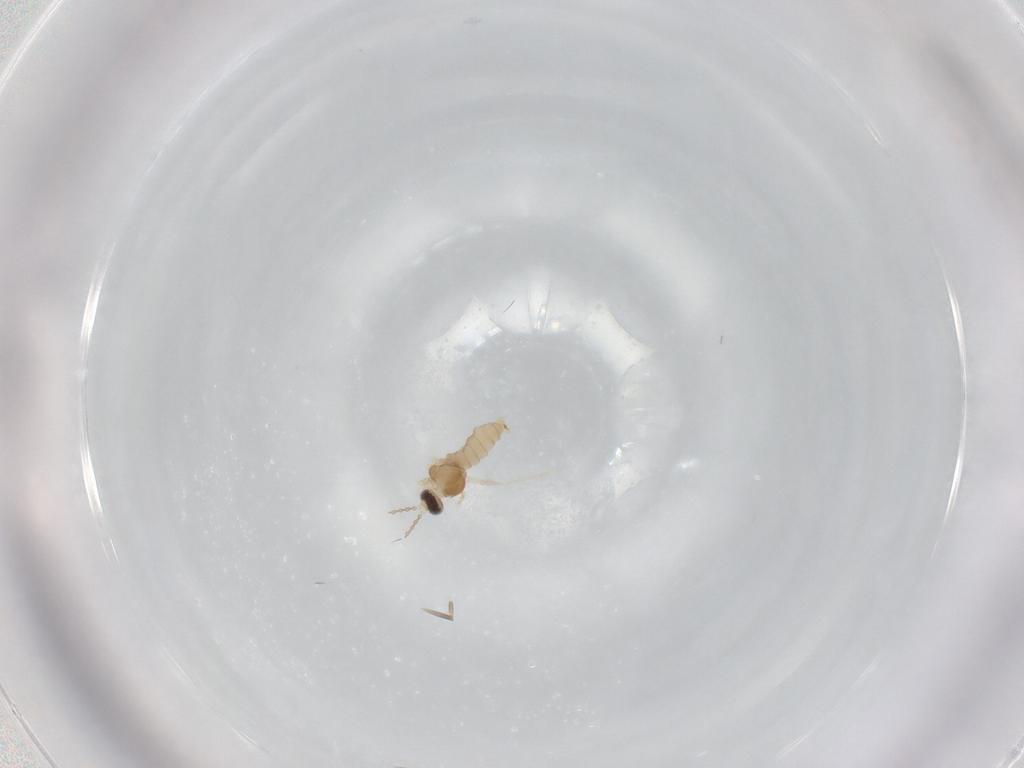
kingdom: Animalia
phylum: Arthropoda
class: Insecta
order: Diptera
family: Cecidomyiidae
